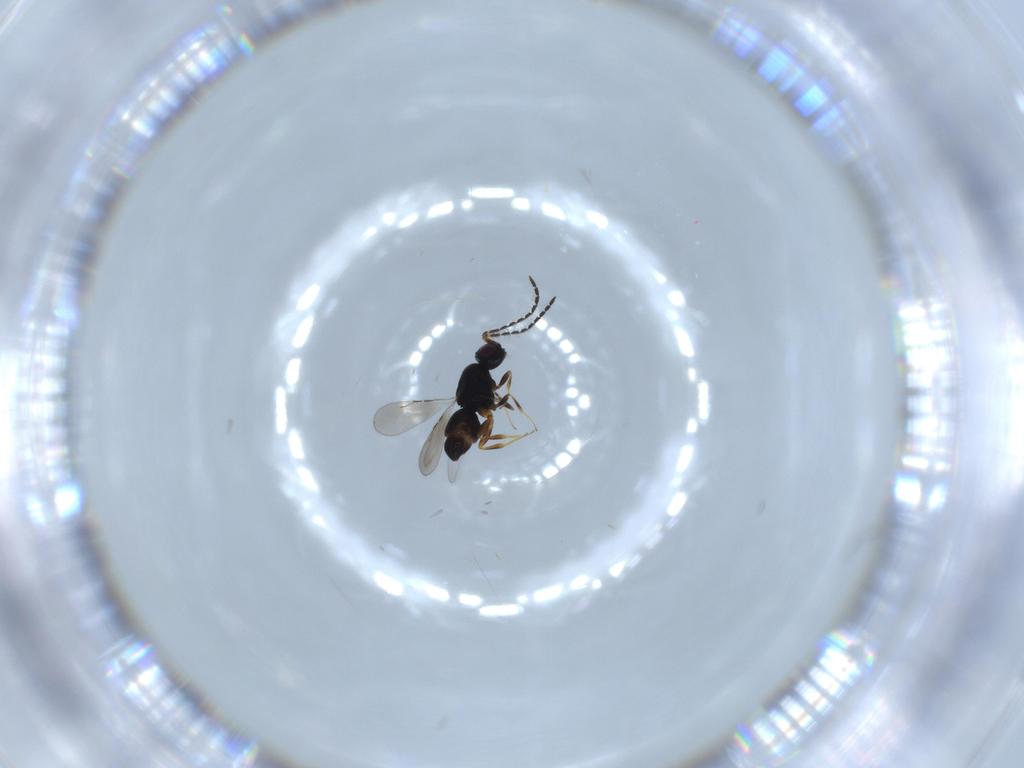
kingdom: Animalia
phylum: Arthropoda
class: Insecta
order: Hymenoptera
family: Ceraphronidae
